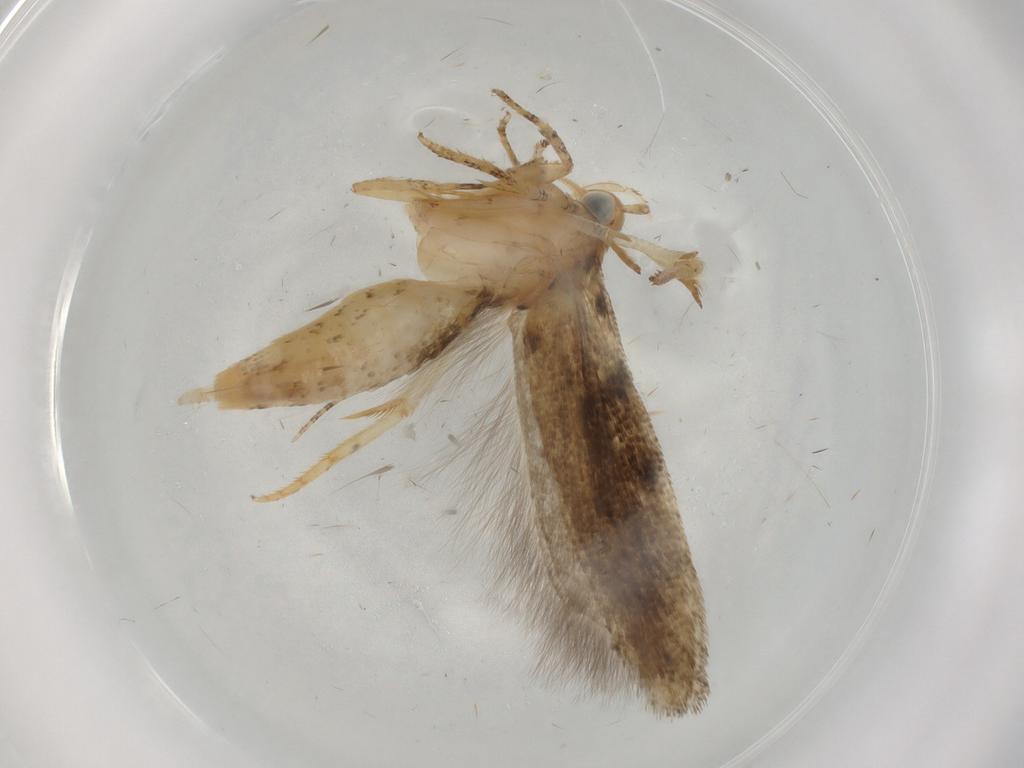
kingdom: Animalia
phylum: Arthropoda
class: Insecta
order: Lepidoptera
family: Gelechiidae
